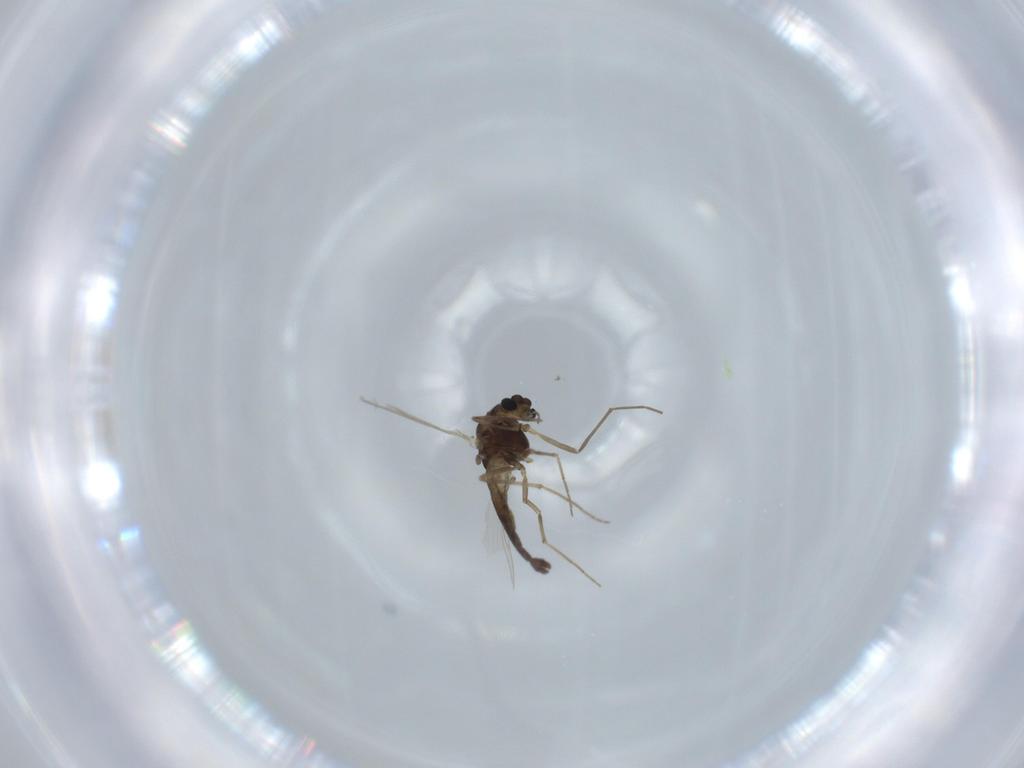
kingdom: Animalia
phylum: Arthropoda
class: Insecta
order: Diptera
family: Chironomidae
